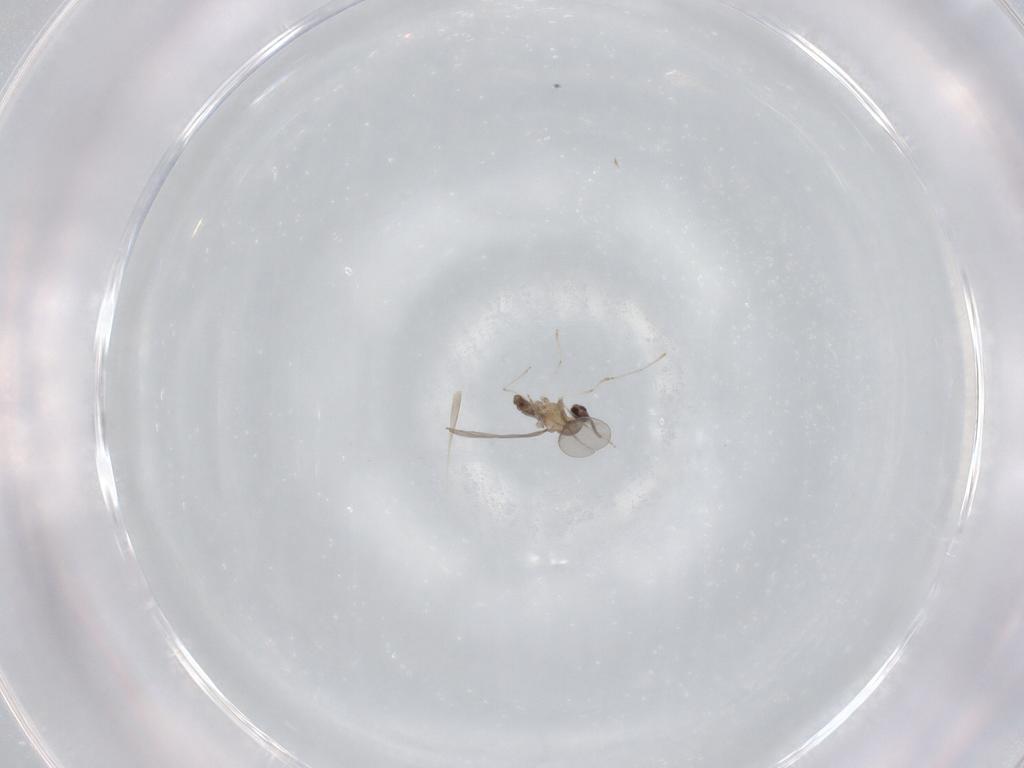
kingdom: Animalia
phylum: Arthropoda
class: Insecta
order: Diptera
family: Cecidomyiidae
